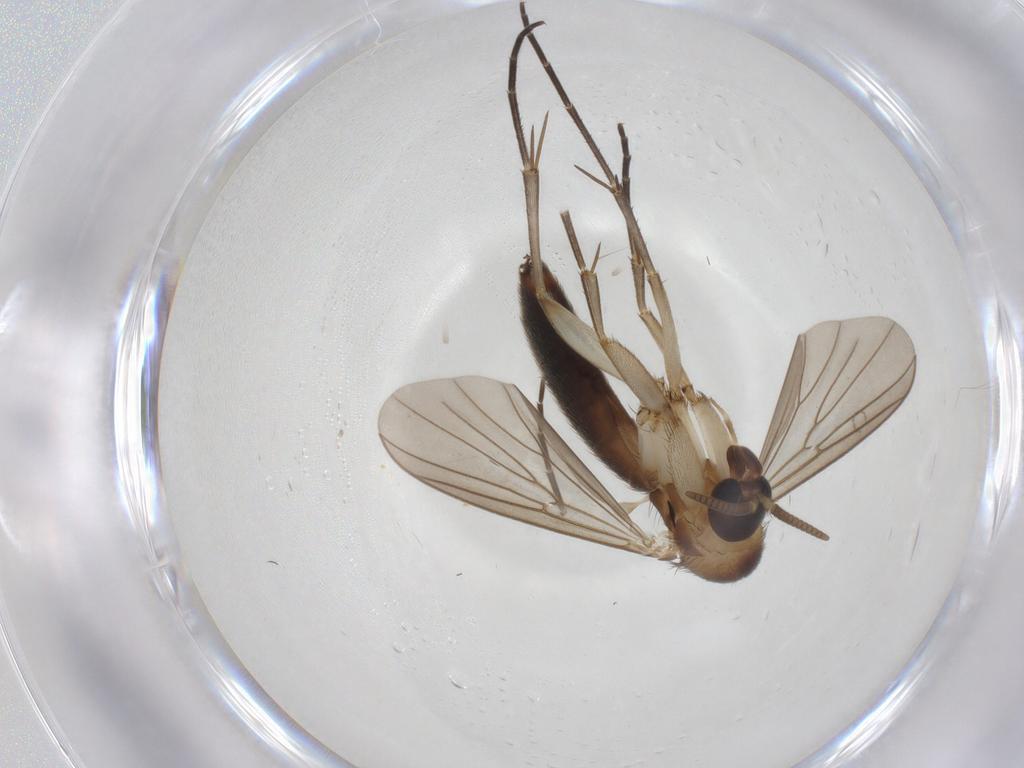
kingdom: Animalia
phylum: Arthropoda
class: Insecta
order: Diptera
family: Mycetophilidae
